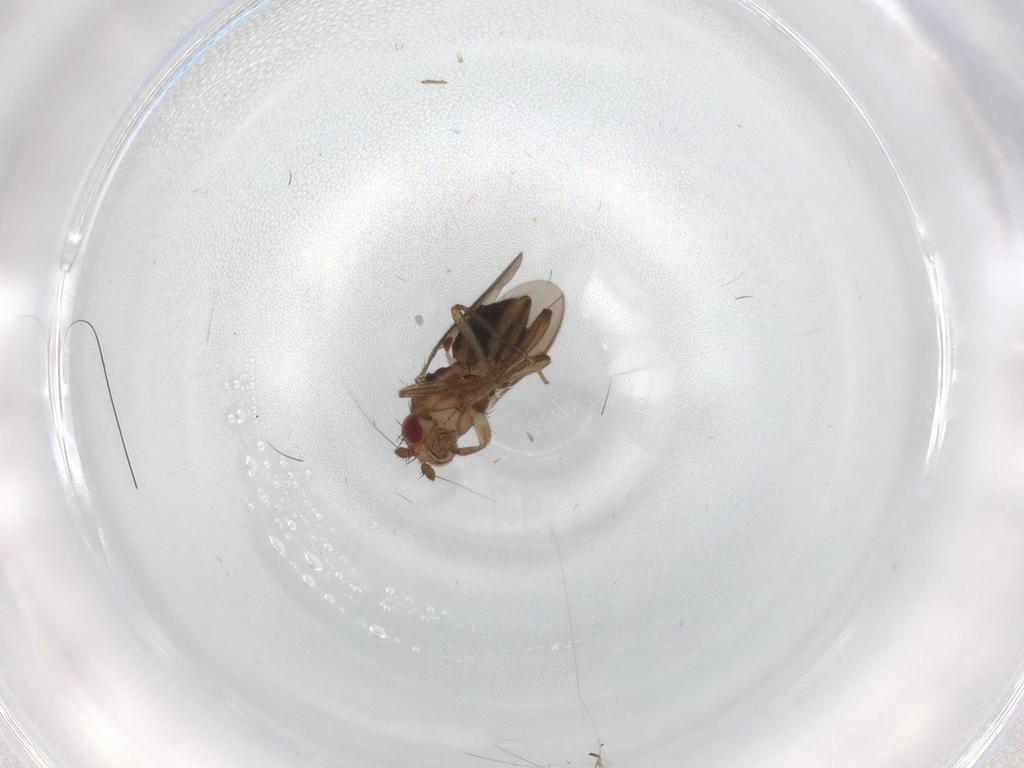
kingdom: Animalia
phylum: Arthropoda
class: Insecta
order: Diptera
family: Sphaeroceridae
